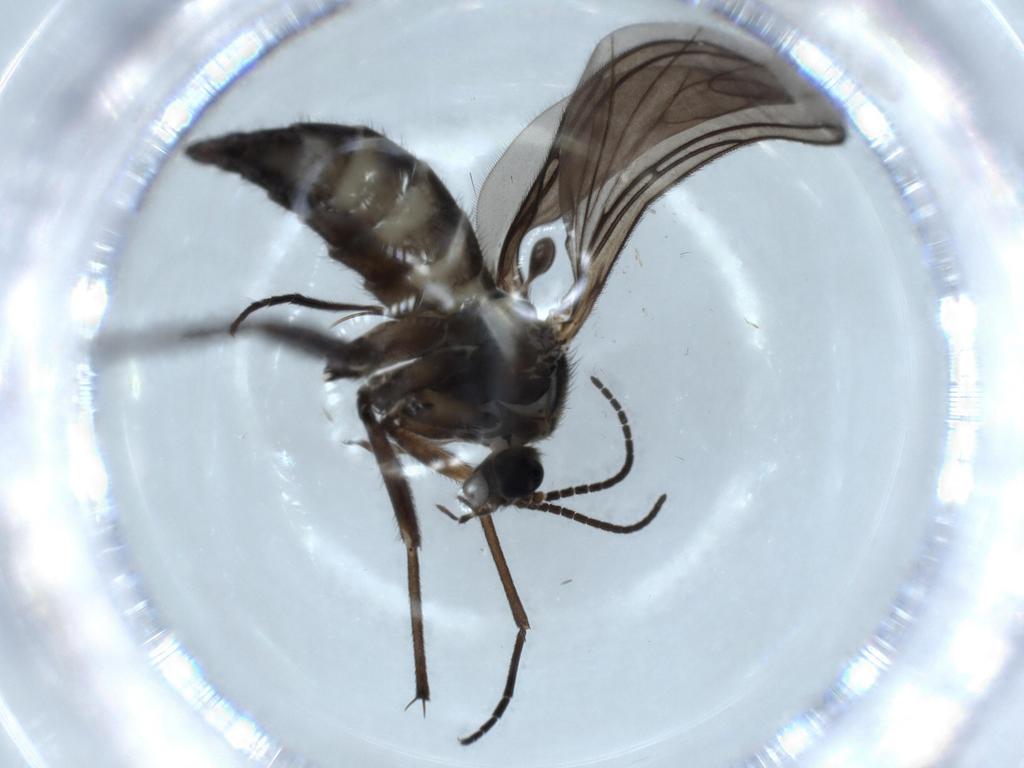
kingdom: Animalia
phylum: Arthropoda
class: Insecta
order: Diptera
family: Sciaridae
